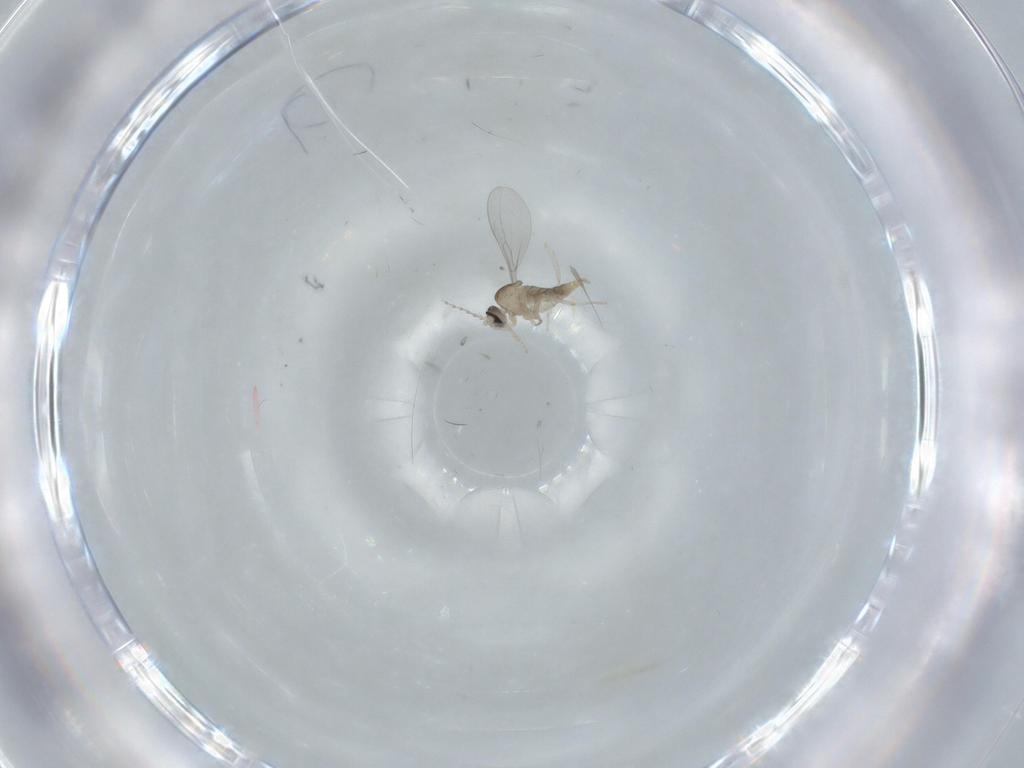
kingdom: Animalia
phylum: Arthropoda
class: Insecta
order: Diptera
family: Cecidomyiidae
